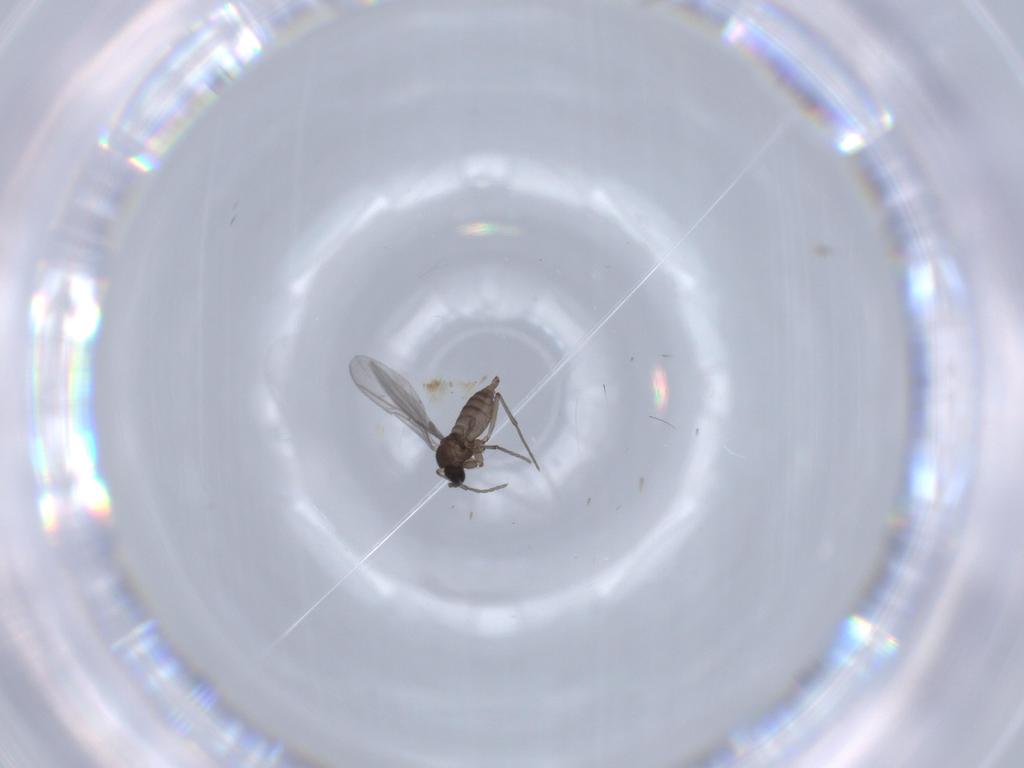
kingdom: Animalia
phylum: Arthropoda
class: Insecta
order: Diptera
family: Sciaridae
